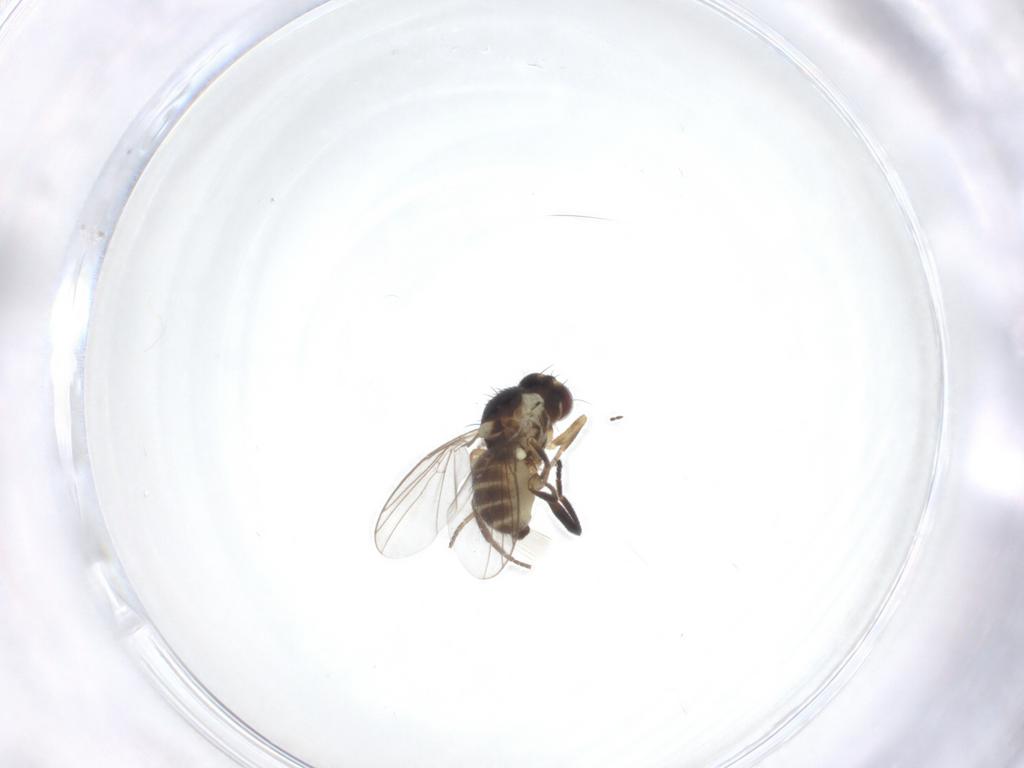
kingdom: Animalia
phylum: Arthropoda
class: Insecta
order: Diptera
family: Agromyzidae
